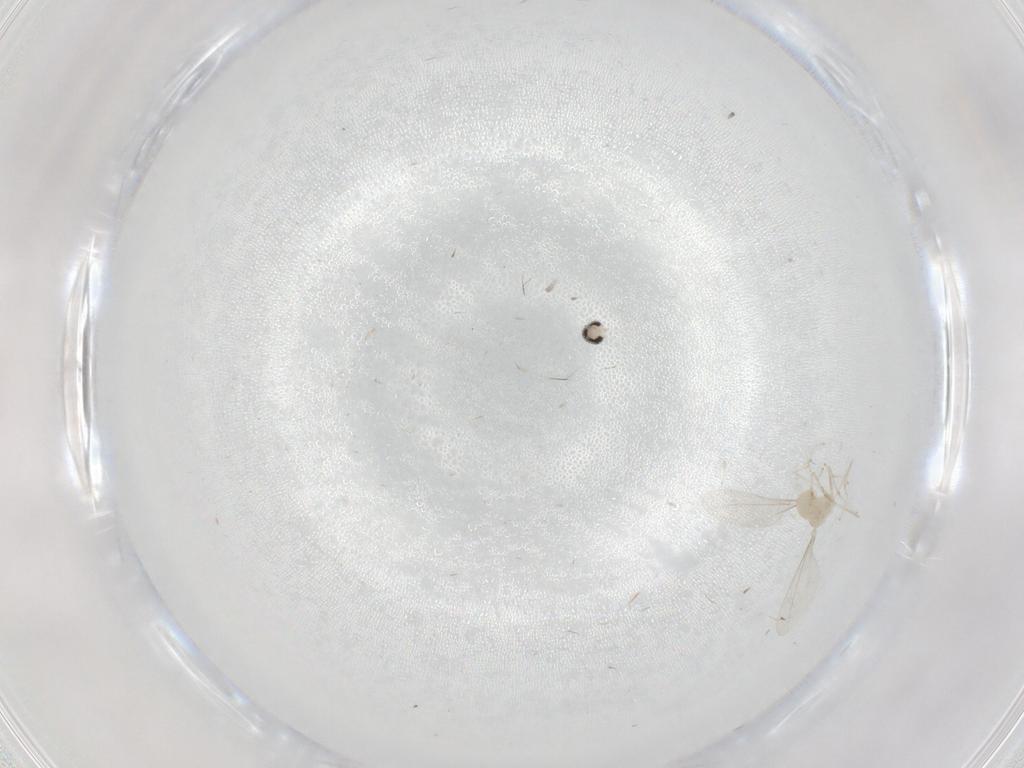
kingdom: Animalia
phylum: Arthropoda
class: Insecta
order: Diptera
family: Cecidomyiidae
